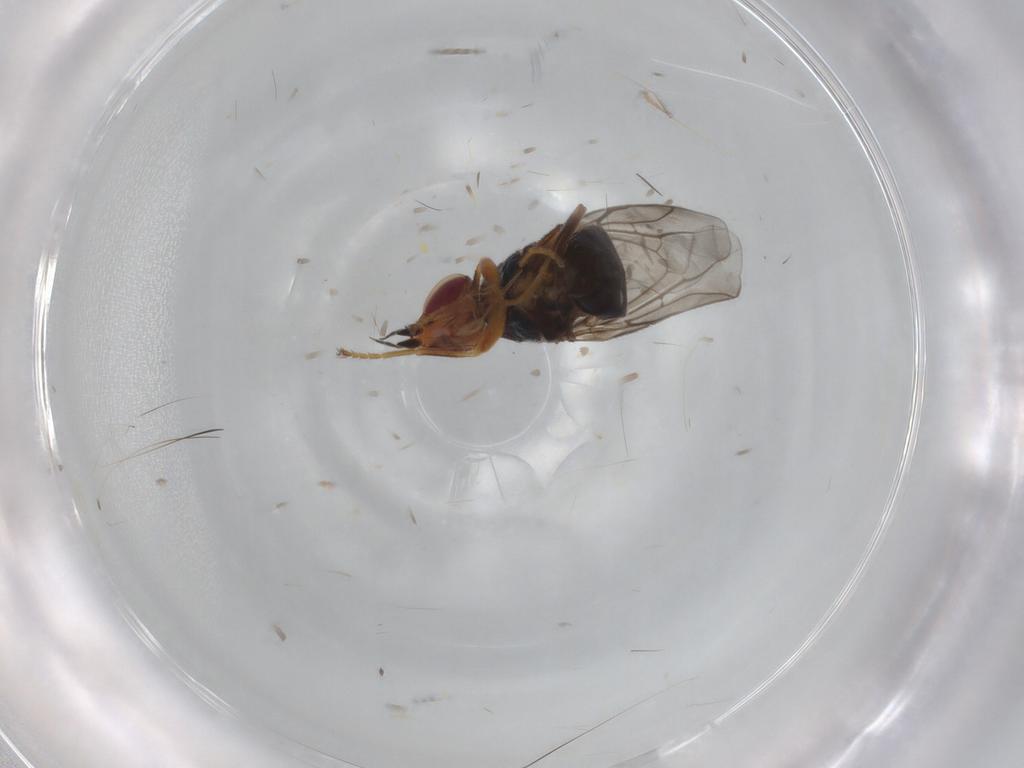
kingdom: Animalia
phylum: Arthropoda
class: Insecta
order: Diptera
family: Chloropidae
